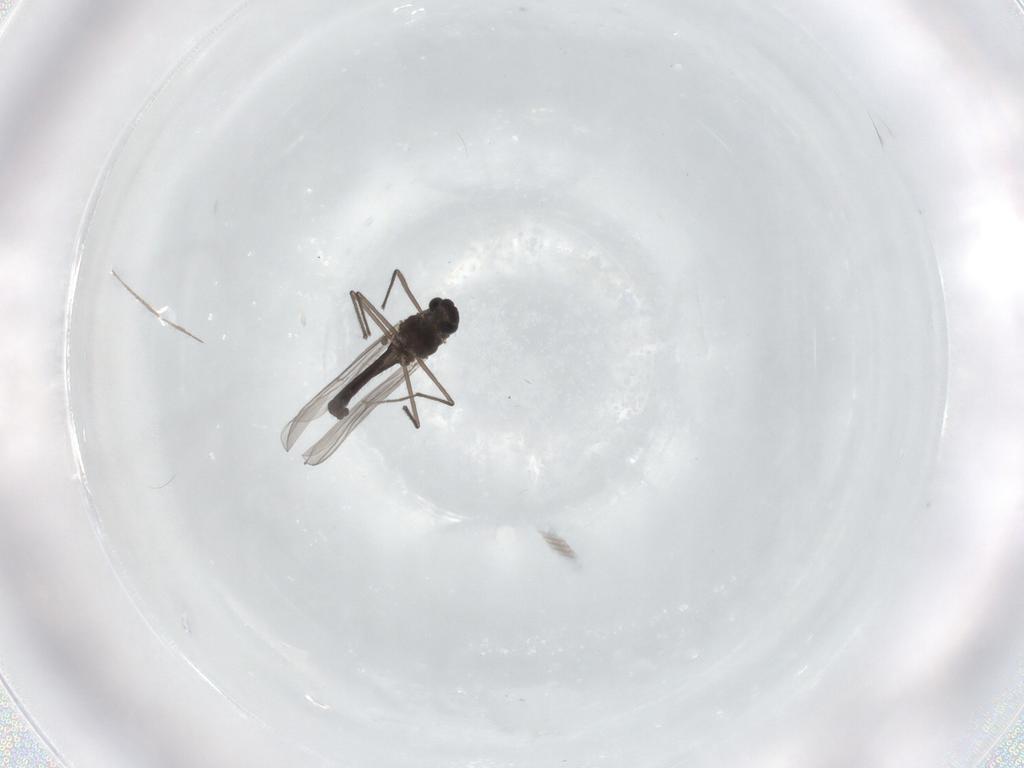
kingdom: Animalia
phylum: Arthropoda
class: Insecta
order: Diptera
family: Chironomidae
